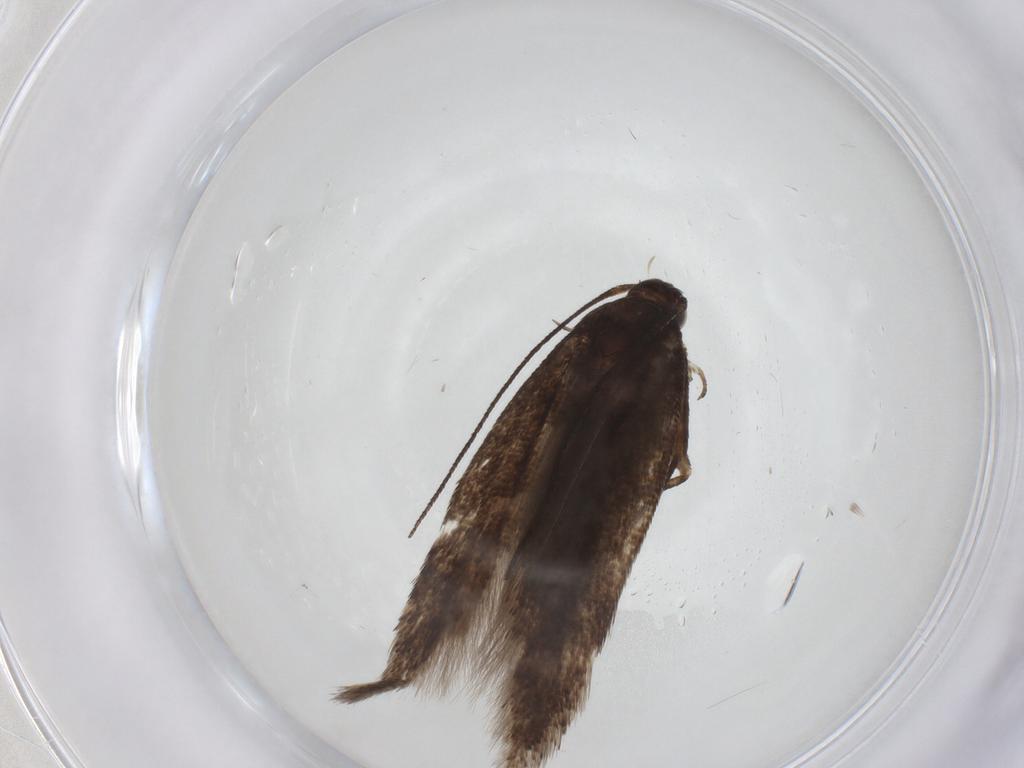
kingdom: Animalia
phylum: Arthropoda
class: Insecta
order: Lepidoptera
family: Gelechiidae
